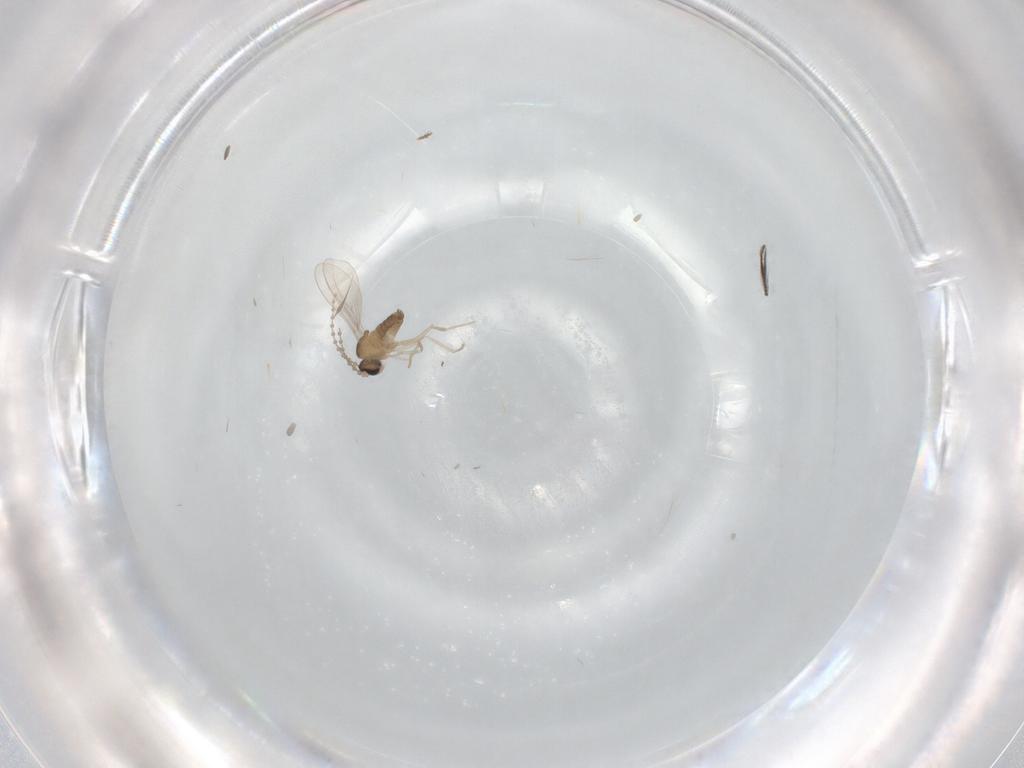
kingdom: Animalia
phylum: Arthropoda
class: Insecta
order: Diptera
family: Cecidomyiidae
